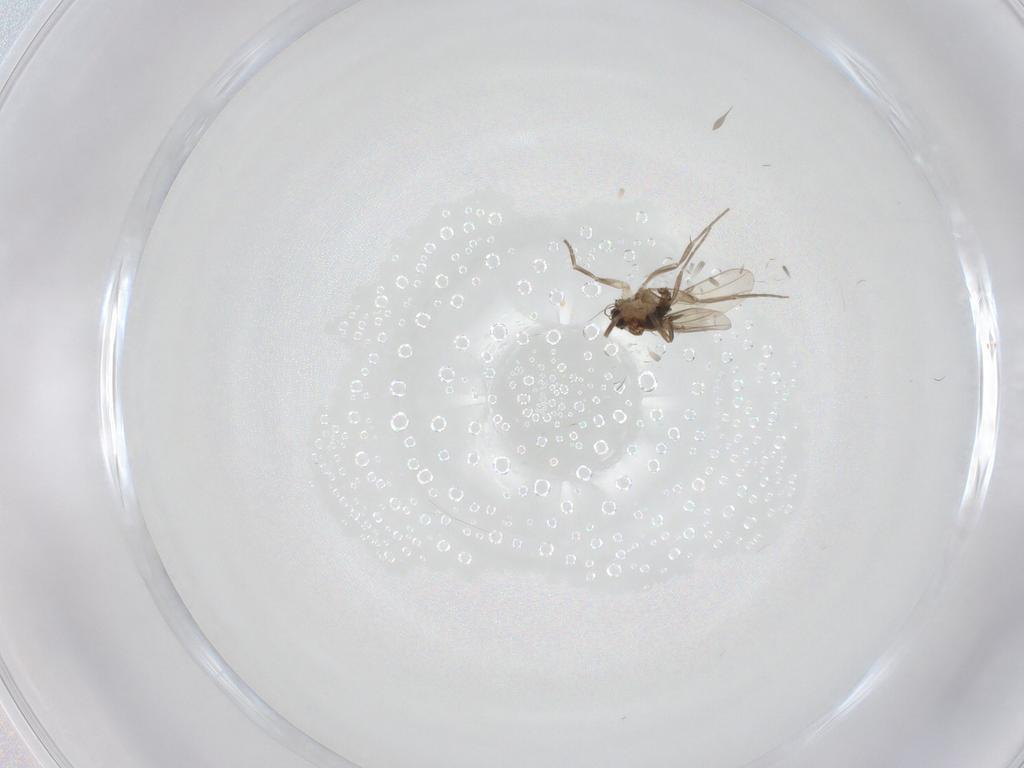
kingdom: Animalia
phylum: Arthropoda
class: Insecta
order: Diptera
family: Phoridae
